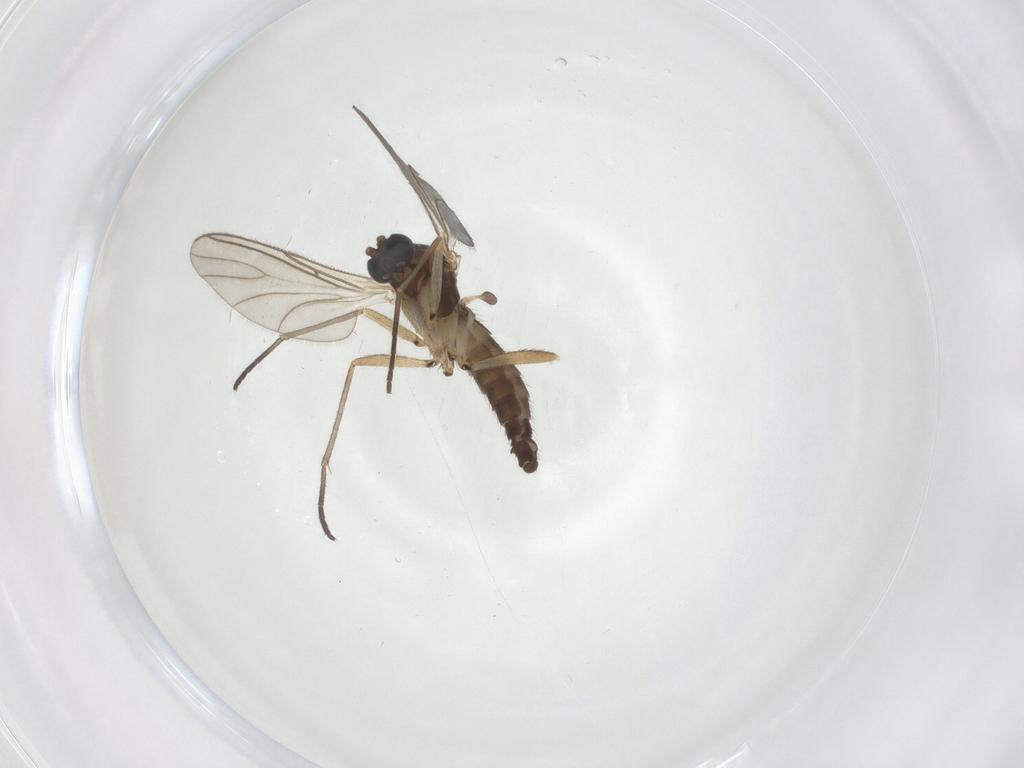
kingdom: Animalia
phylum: Arthropoda
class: Insecta
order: Diptera
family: Sciaridae
